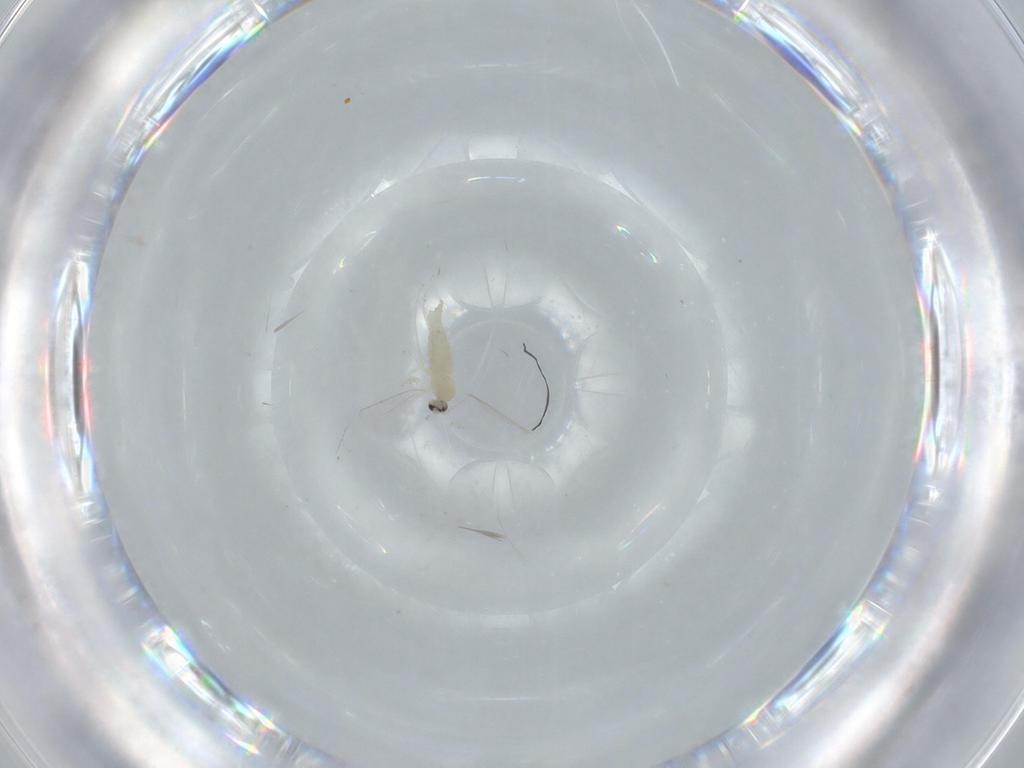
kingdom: Animalia
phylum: Arthropoda
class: Insecta
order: Diptera
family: Cecidomyiidae
